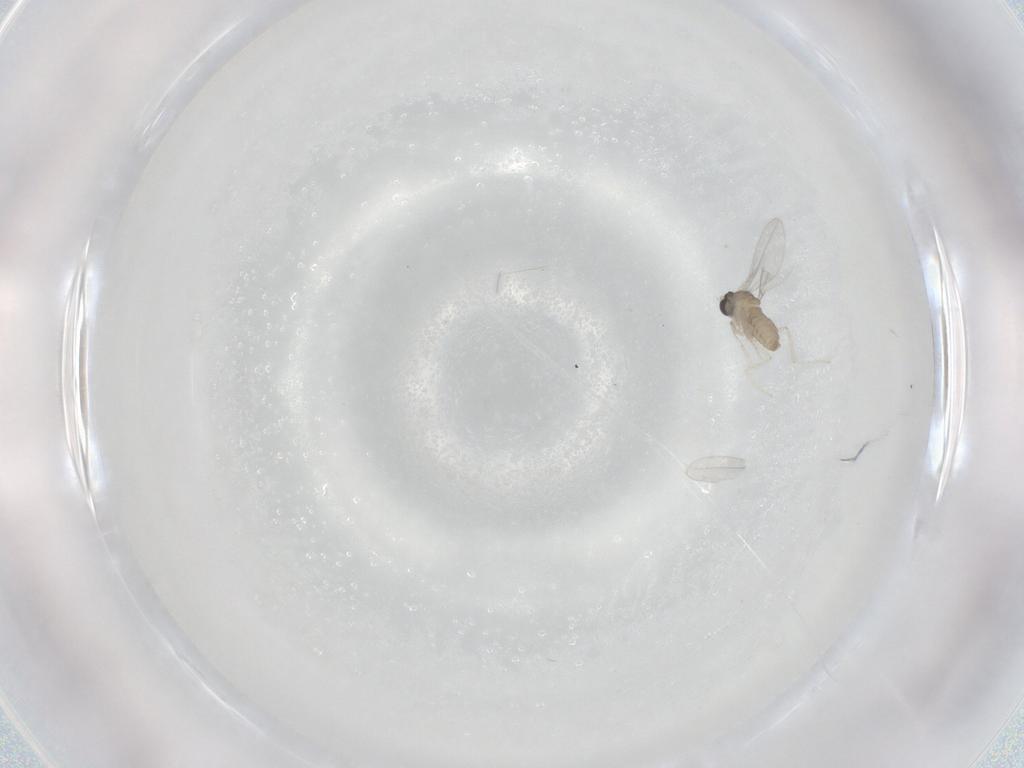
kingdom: Animalia
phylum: Arthropoda
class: Insecta
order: Diptera
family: Cecidomyiidae
